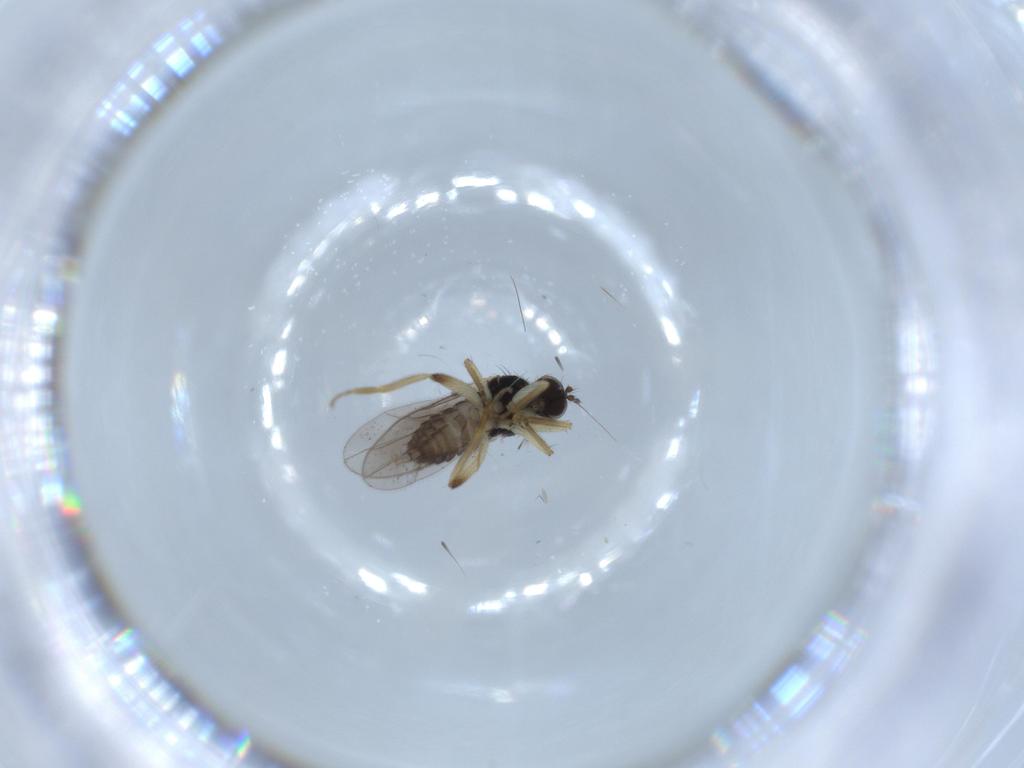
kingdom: Animalia
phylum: Arthropoda
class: Insecta
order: Diptera
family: Hybotidae
